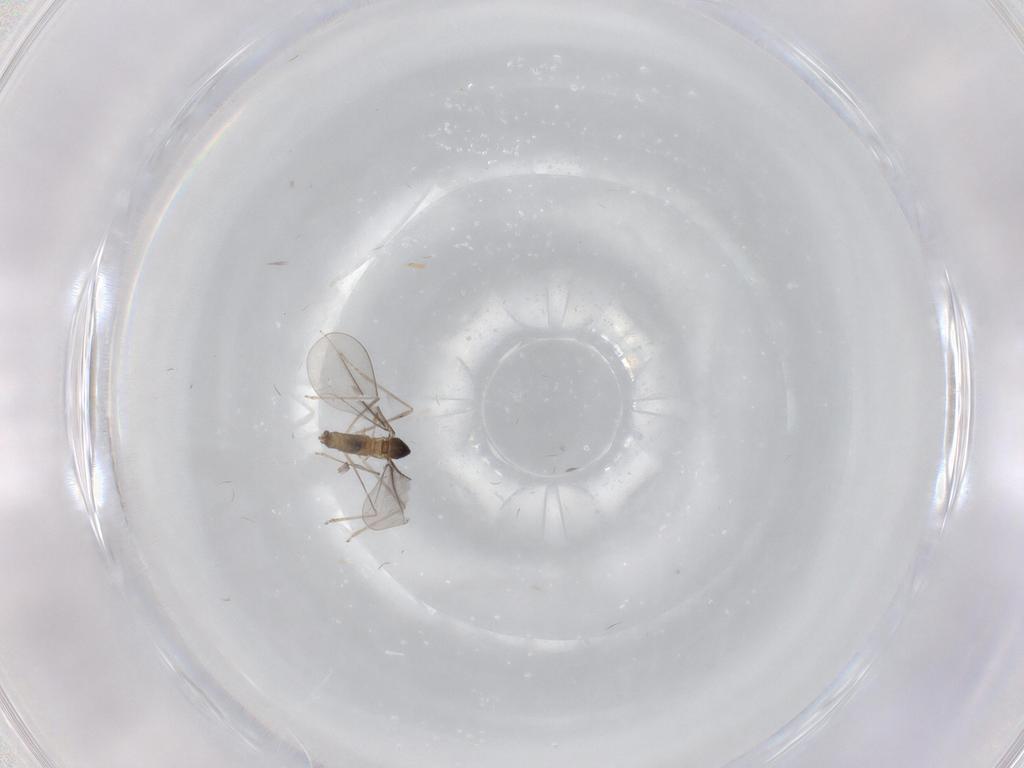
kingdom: Animalia
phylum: Arthropoda
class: Insecta
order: Diptera
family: Cecidomyiidae
